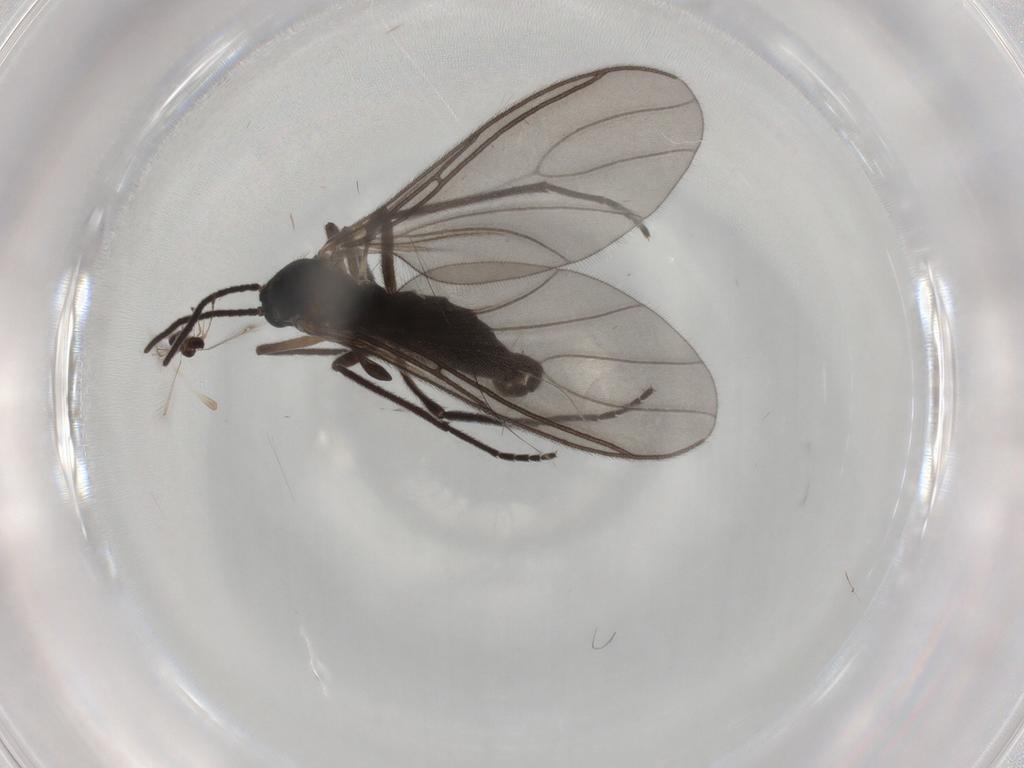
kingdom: Animalia
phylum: Arthropoda
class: Insecta
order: Diptera
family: Sciaridae
